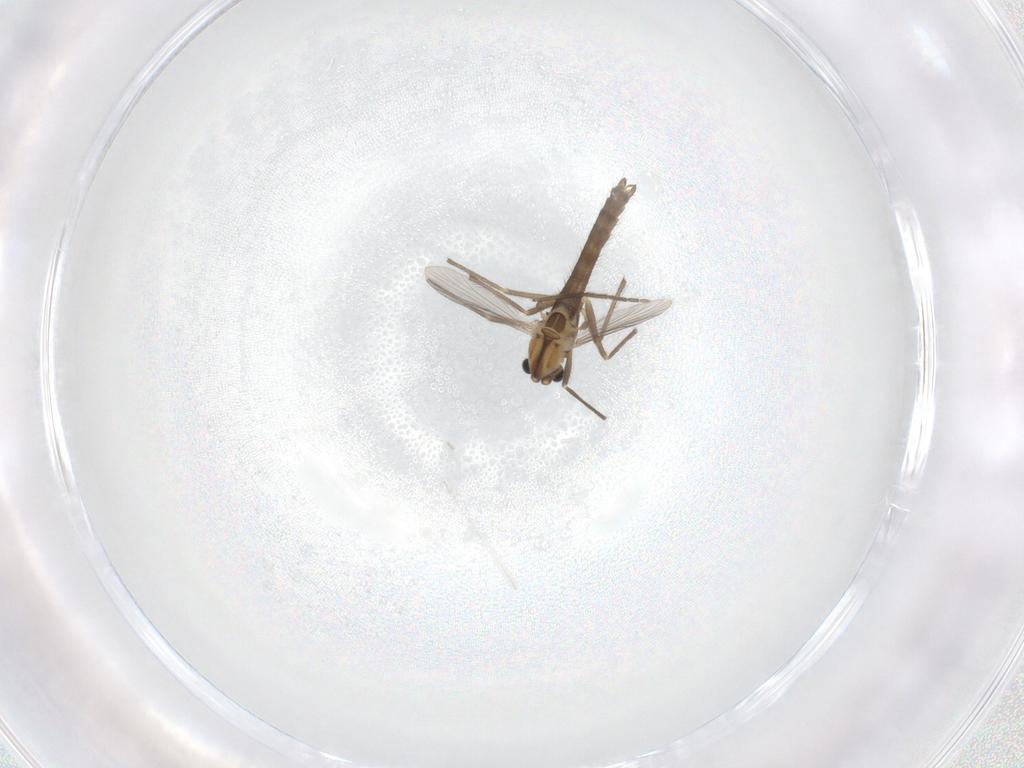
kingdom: Animalia
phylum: Arthropoda
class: Insecta
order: Diptera
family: Chironomidae
